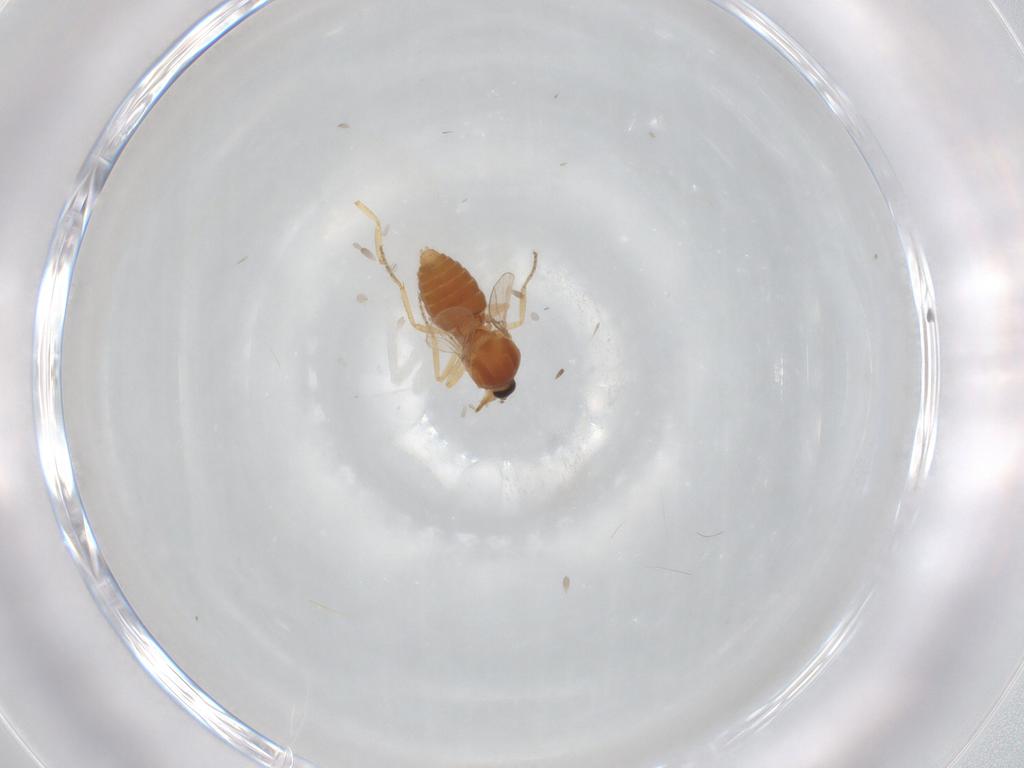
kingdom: Animalia
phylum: Arthropoda
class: Insecta
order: Diptera
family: Ceratopogonidae
